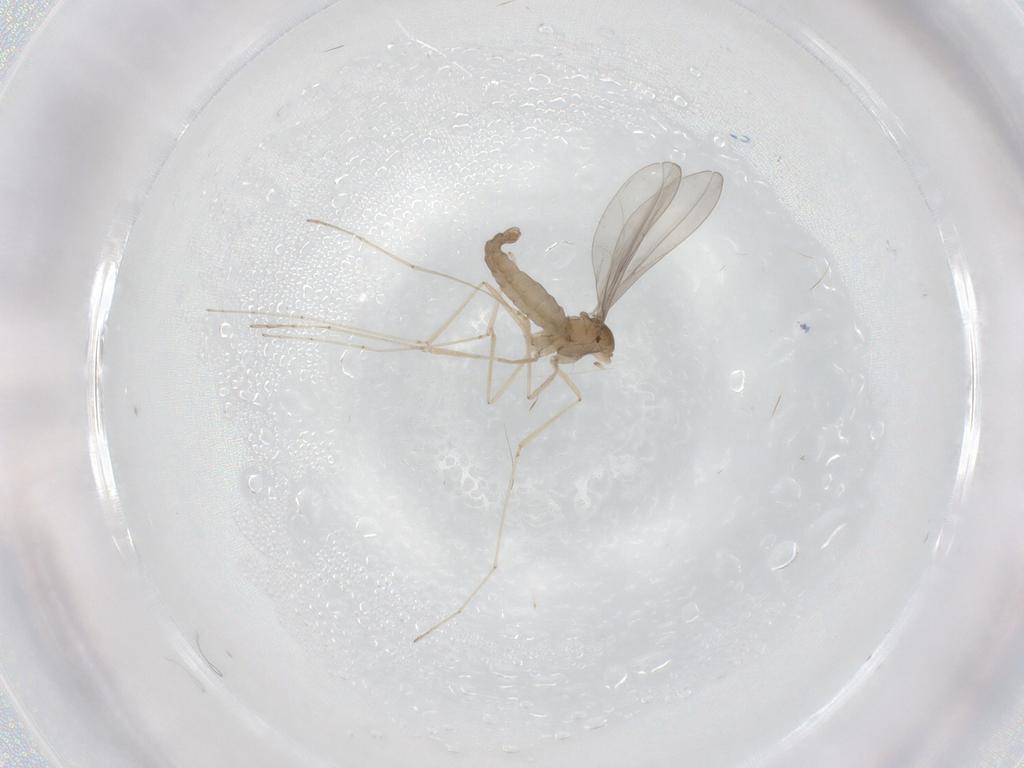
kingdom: Animalia
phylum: Arthropoda
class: Insecta
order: Diptera
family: Cecidomyiidae
